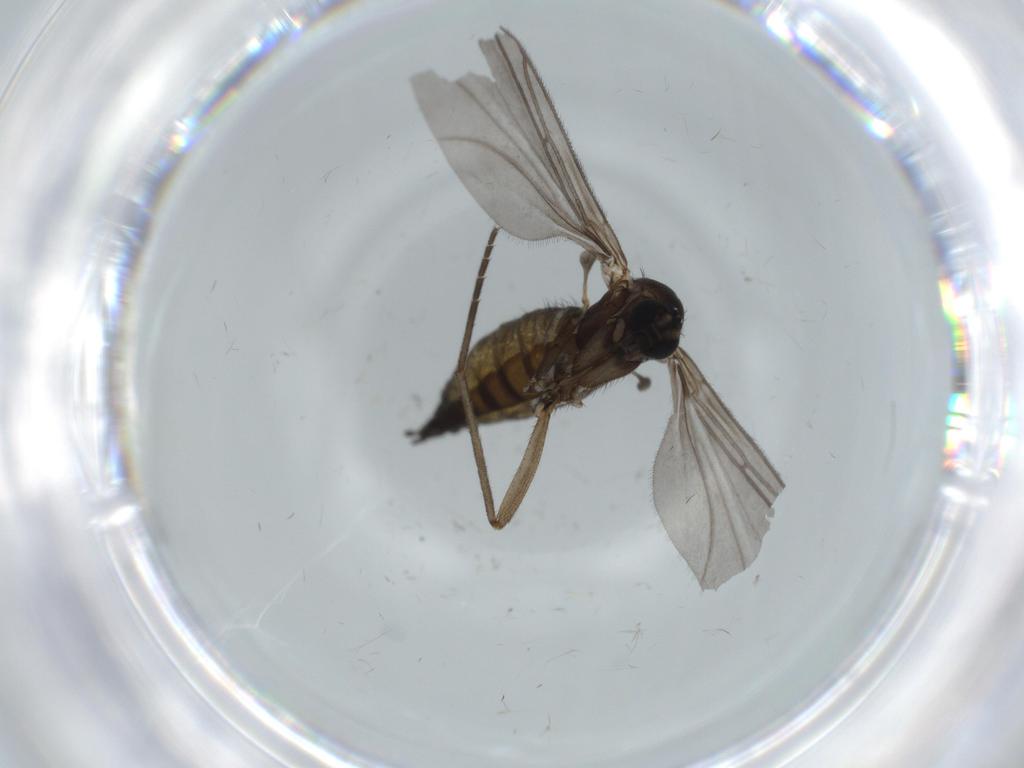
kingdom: Animalia
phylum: Arthropoda
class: Insecta
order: Diptera
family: Sciaridae
